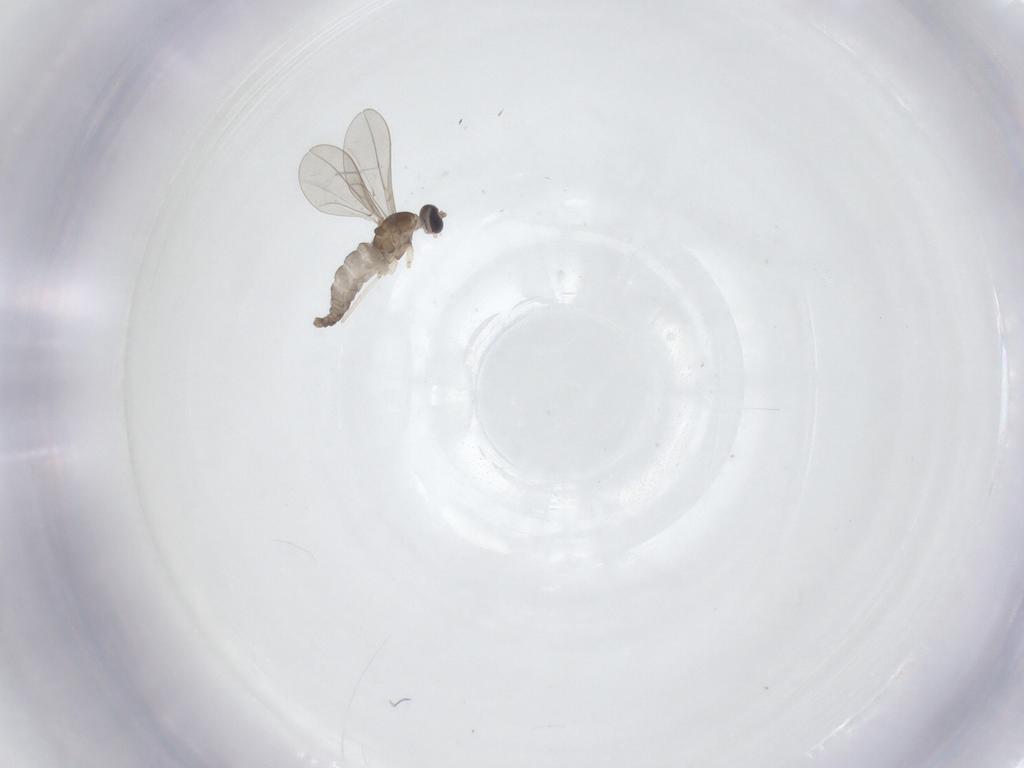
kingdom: Animalia
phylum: Arthropoda
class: Insecta
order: Diptera
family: Cecidomyiidae
